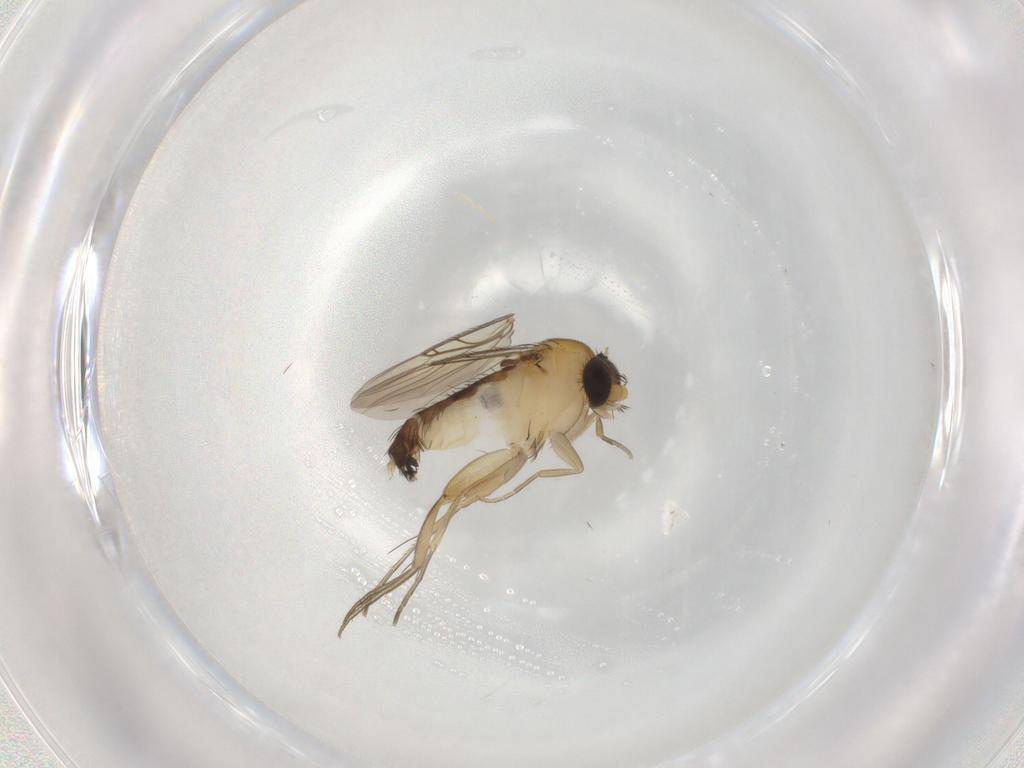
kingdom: Animalia
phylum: Arthropoda
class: Insecta
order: Diptera
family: Phoridae
